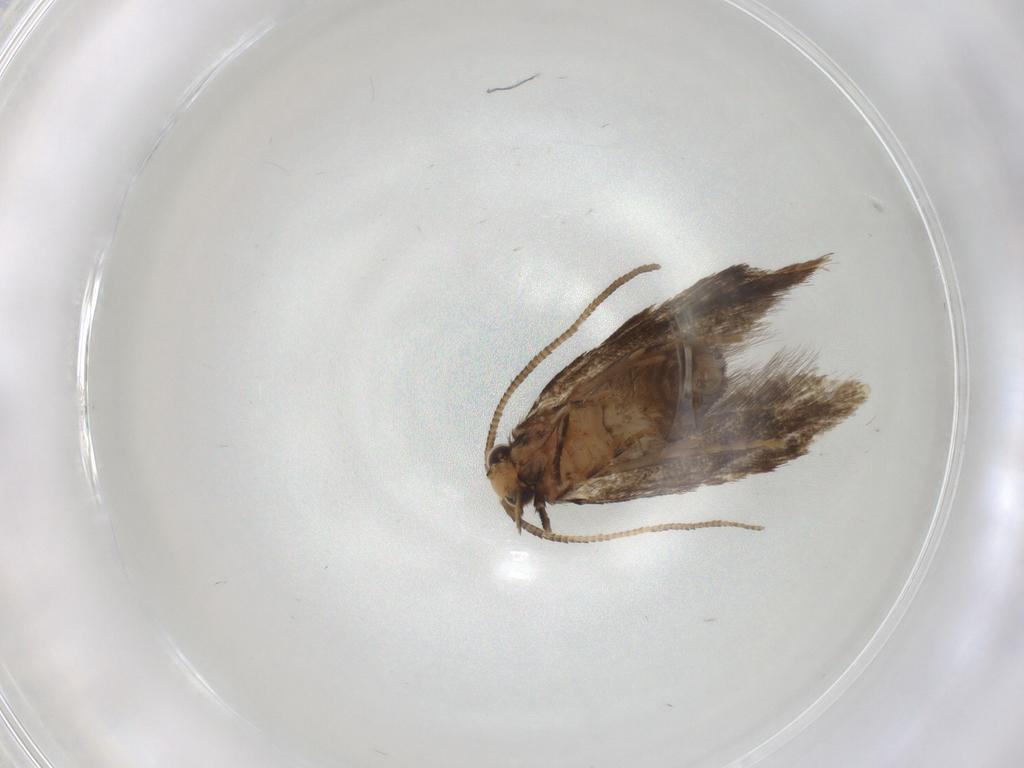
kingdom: Animalia
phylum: Arthropoda
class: Insecta
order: Lepidoptera
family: Tineidae
